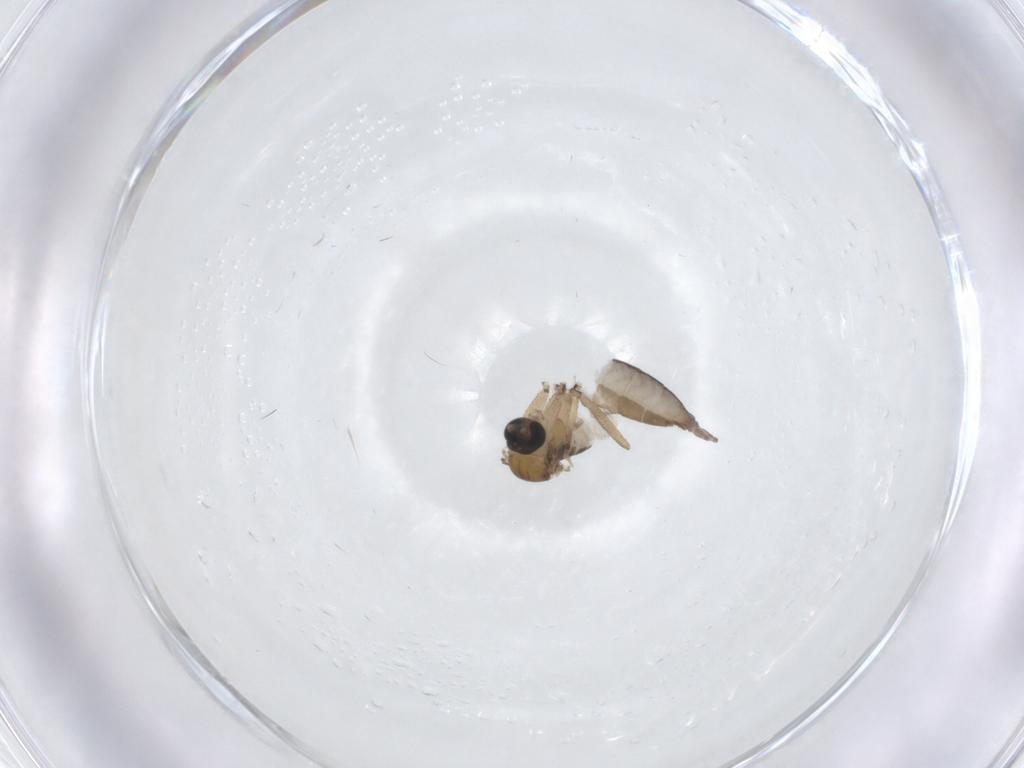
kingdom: Animalia
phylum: Arthropoda
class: Insecta
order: Diptera
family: Sciaridae
